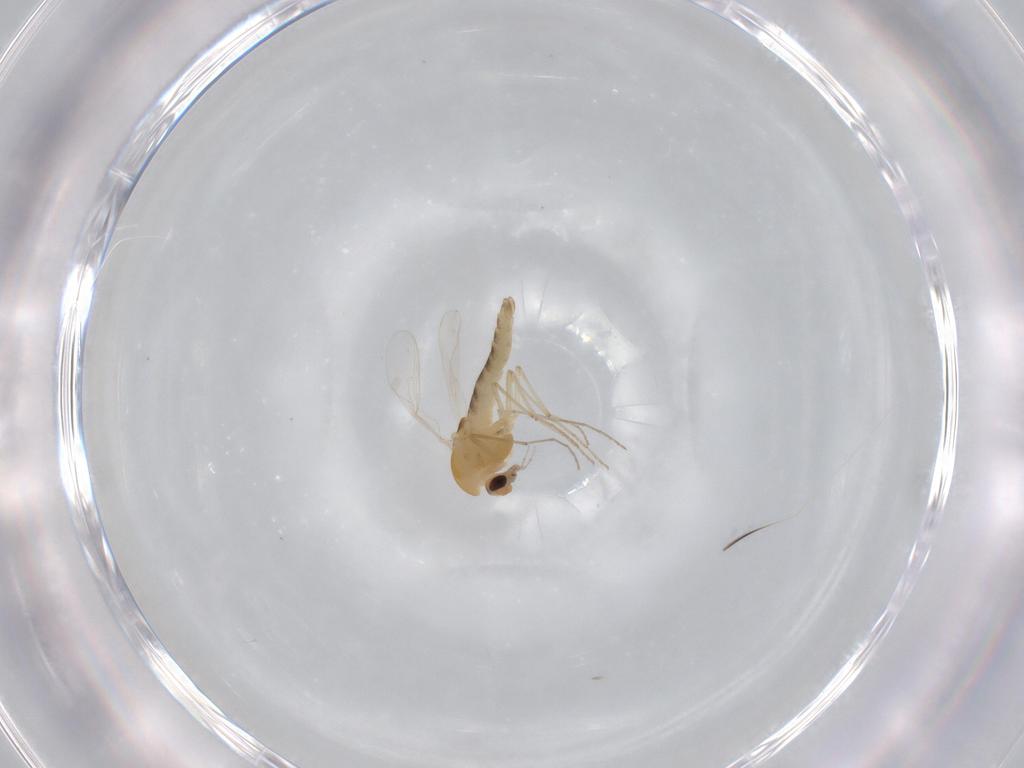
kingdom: Animalia
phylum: Arthropoda
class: Insecta
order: Diptera
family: Chironomidae
